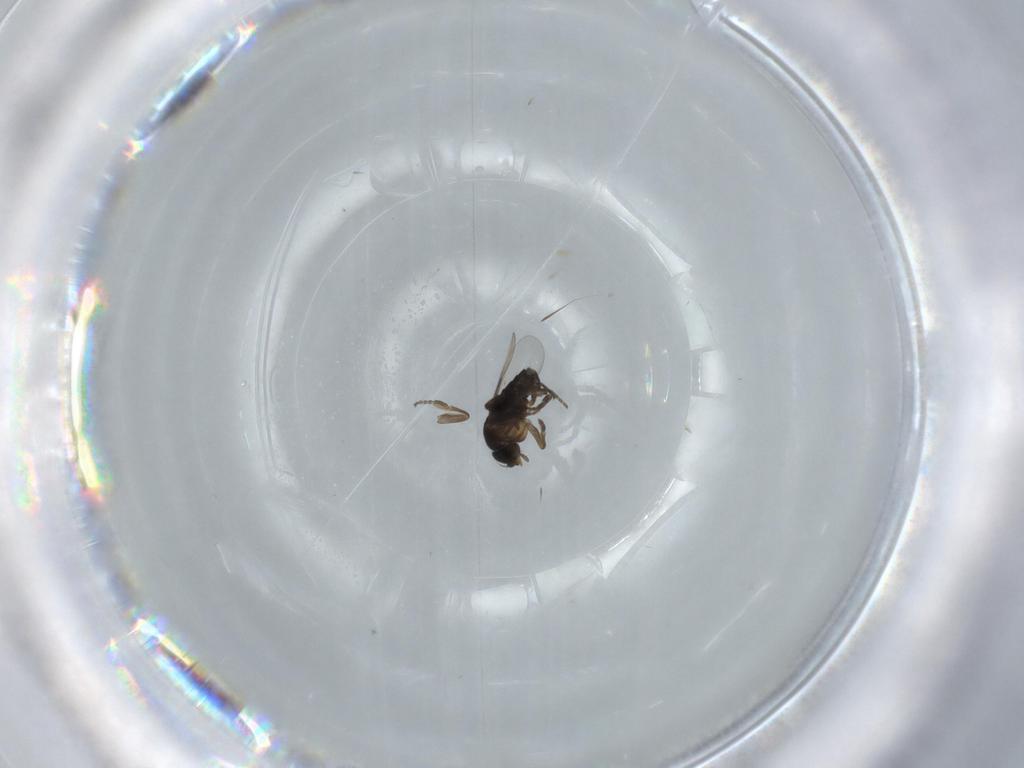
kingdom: Animalia
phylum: Arthropoda
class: Insecta
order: Diptera
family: Phoridae
